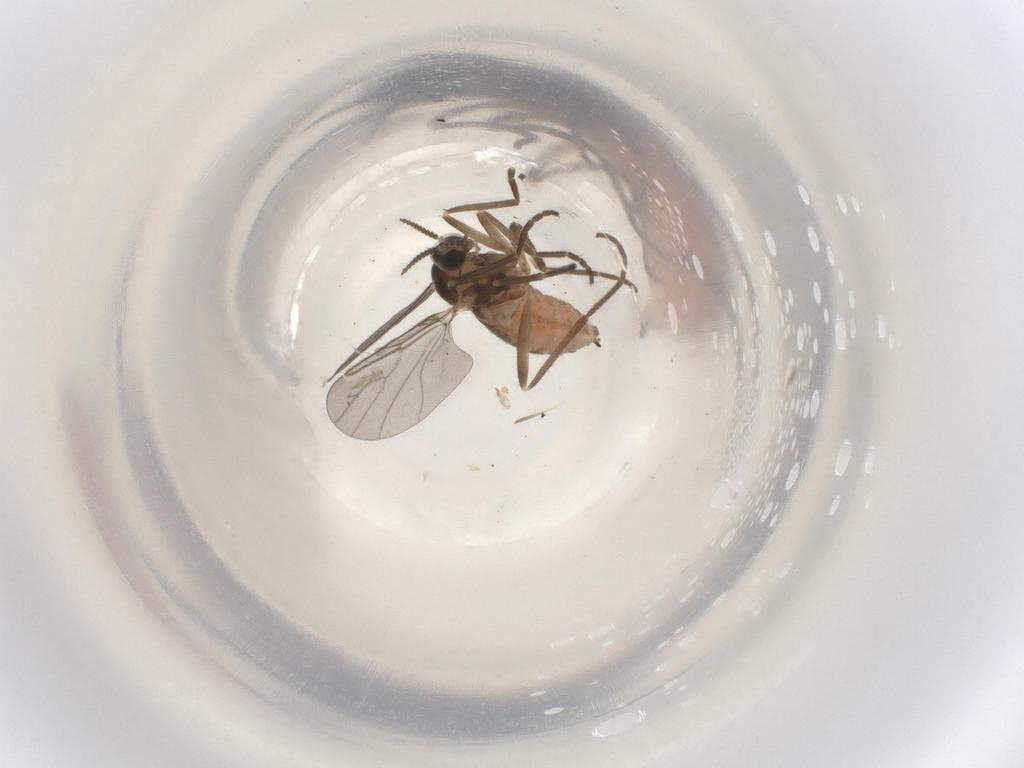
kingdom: Animalia
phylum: Arthropoda
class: Insecta
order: Diptera
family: Cecidomyiidae
